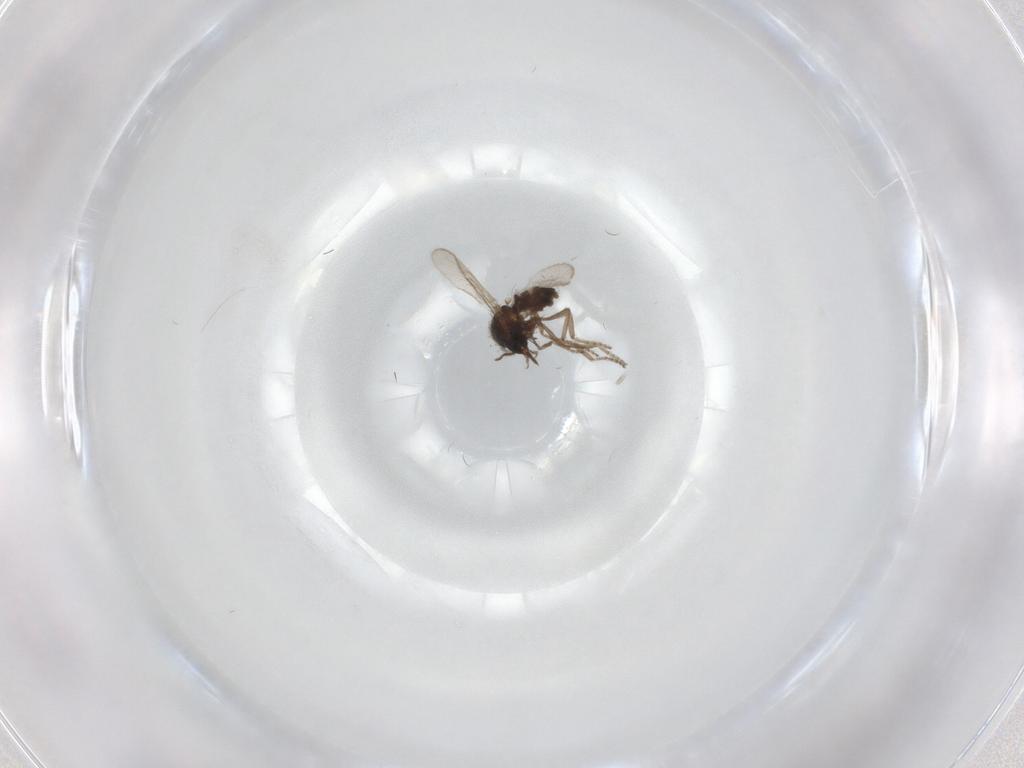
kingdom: Animalia
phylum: Arthropoda
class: Insecta
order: Diptera
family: Ceratopogonidae
